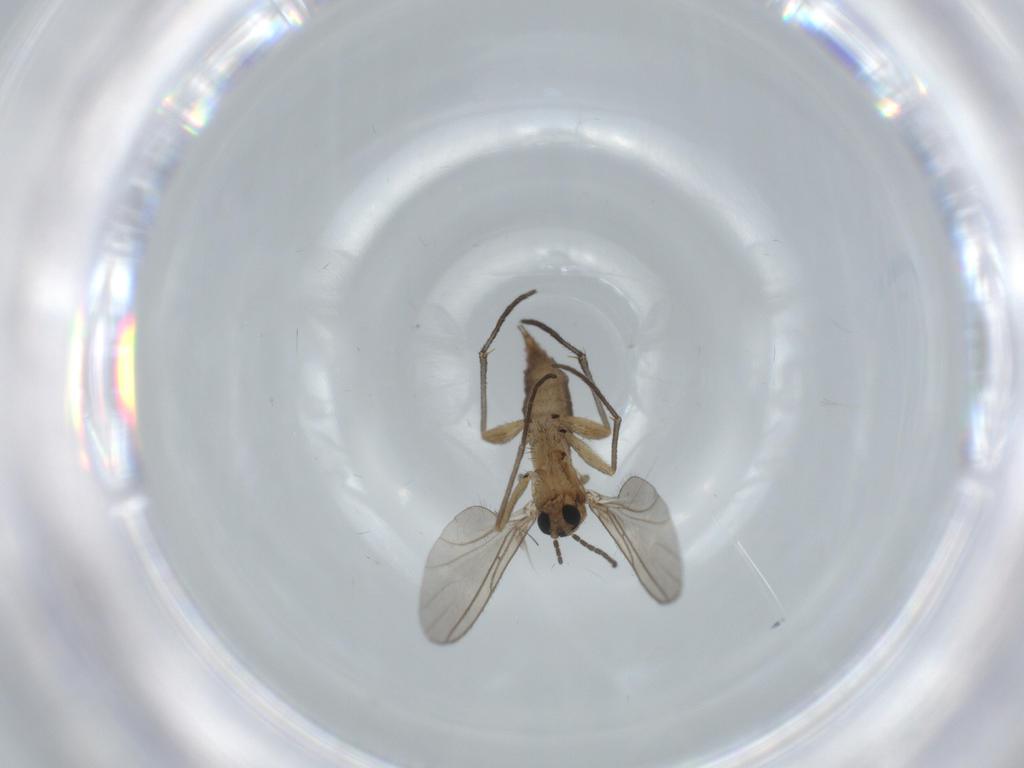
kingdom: Animalia
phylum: Arthropoda
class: Insecta
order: Diptera
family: Sciaridae
